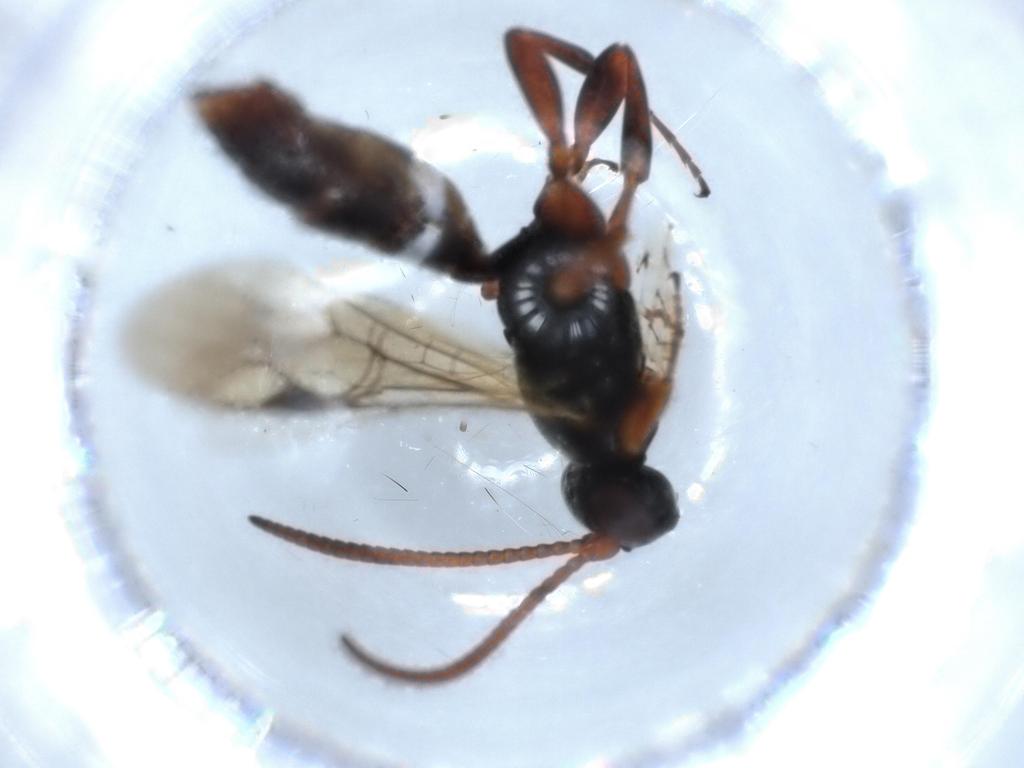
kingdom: Animalia
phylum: Arthropoda
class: Insecta
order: Hymenoptera
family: Ichneumonidae
